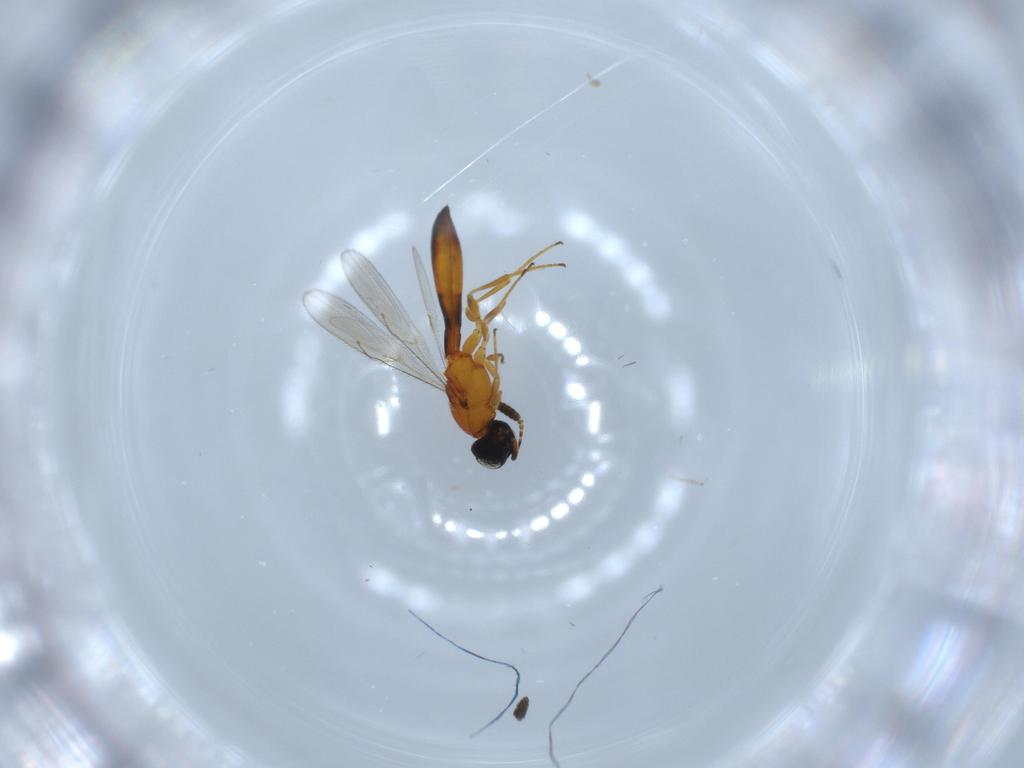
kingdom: Animalia
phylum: Arthropoda
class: Insecta
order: Hymenoptera
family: Scelionidae
